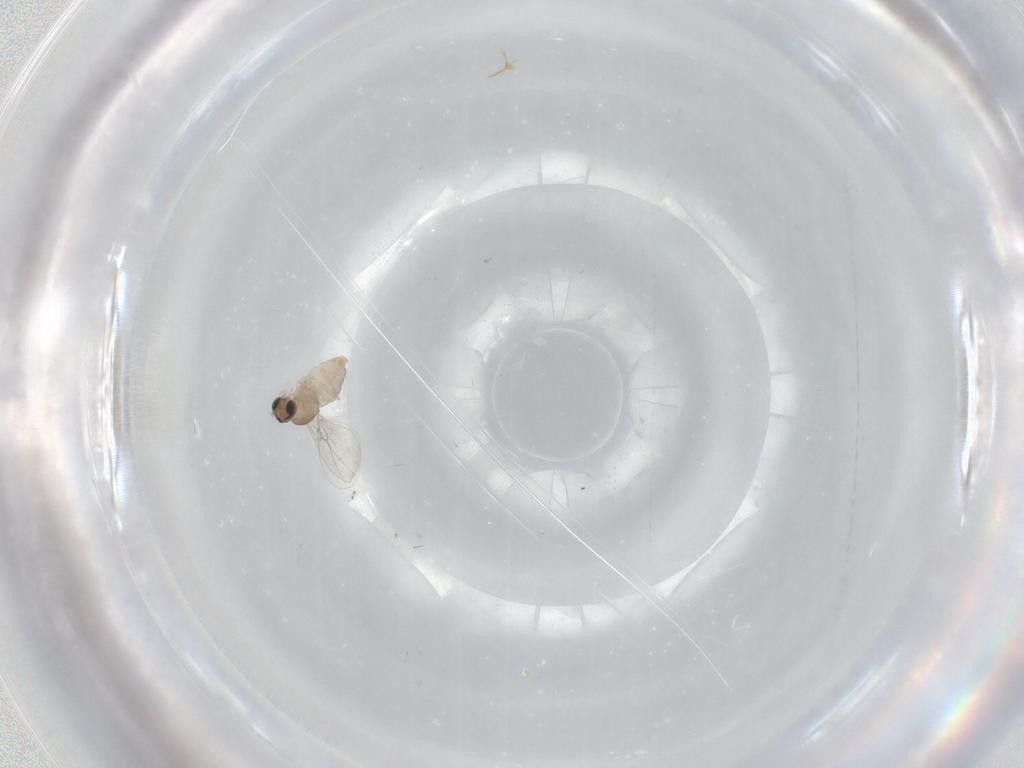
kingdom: Animalia
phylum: Arthropoda
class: Insecta
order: Diptera
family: Cecidomyiidae
